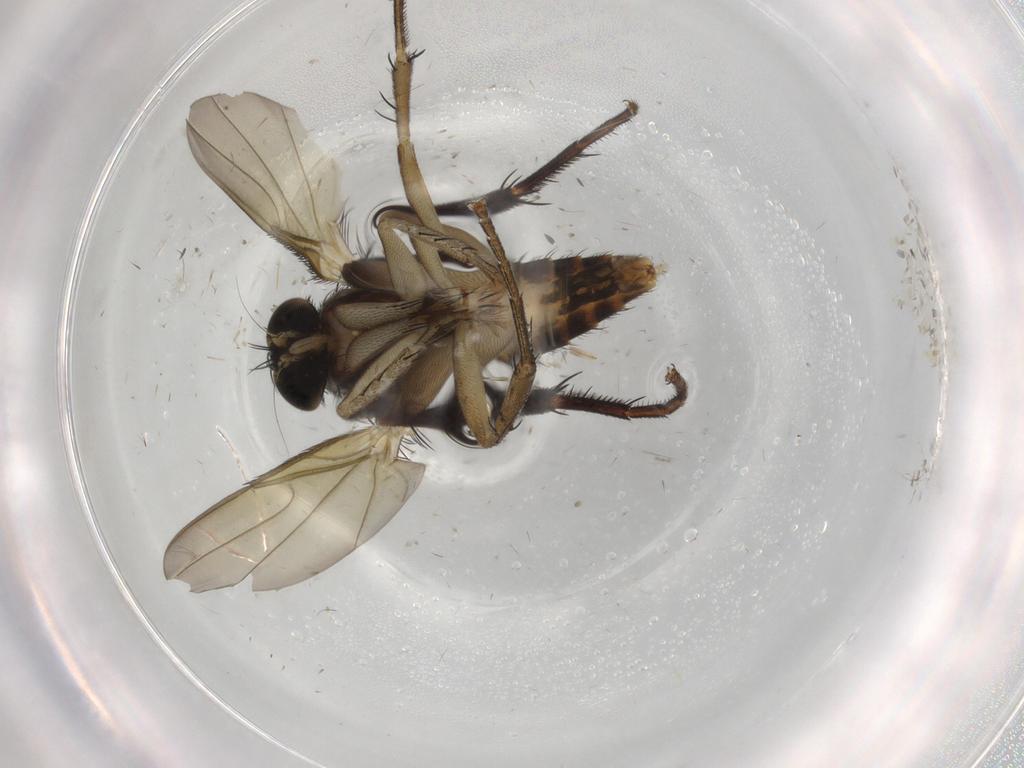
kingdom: Animalia
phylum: Arthropoda
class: Insecta
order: Diptera
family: Phoridae
